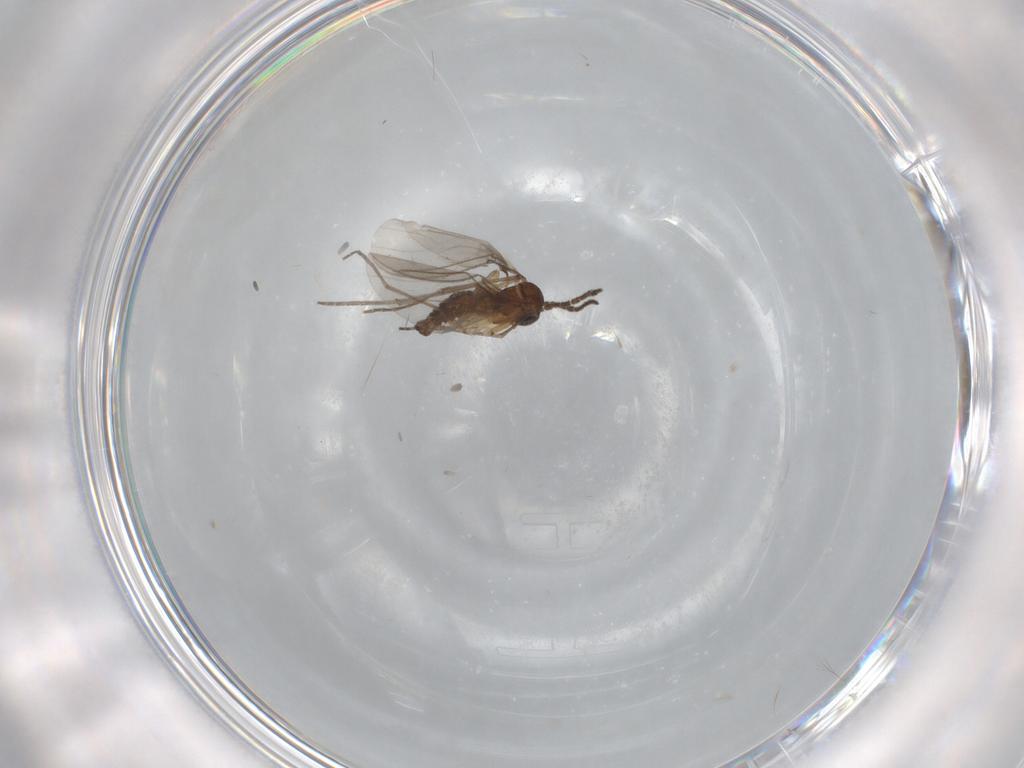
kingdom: Animalia
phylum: Arthropoda
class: Insecta
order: Diptera
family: Sciaridae
